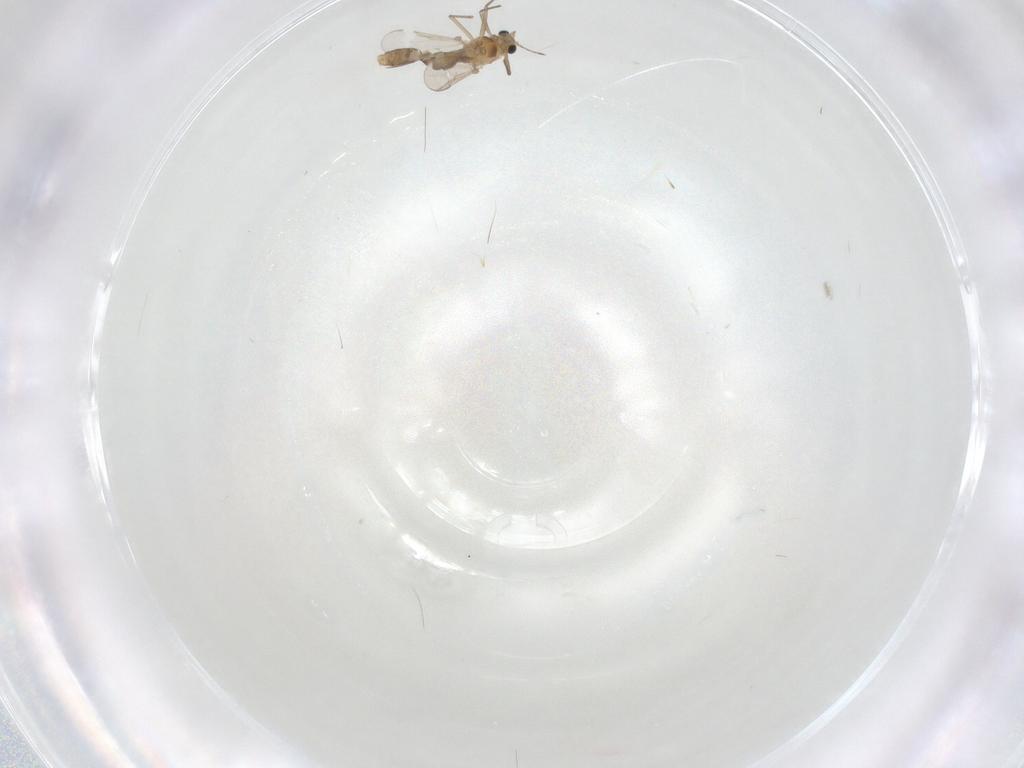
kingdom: Animalia
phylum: Arthropoda
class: Insecta
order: Diptera
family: Chironomidae
